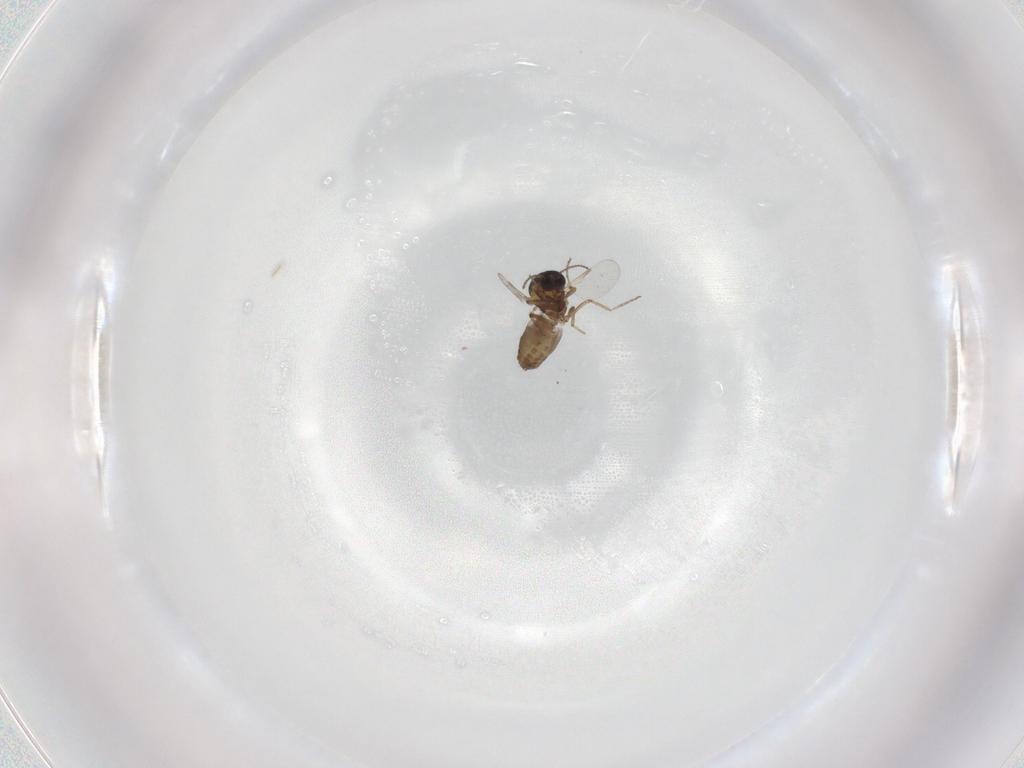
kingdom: Animalia
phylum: Arthropoda
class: Insecta
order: Diptera
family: Ceratopogonidae
